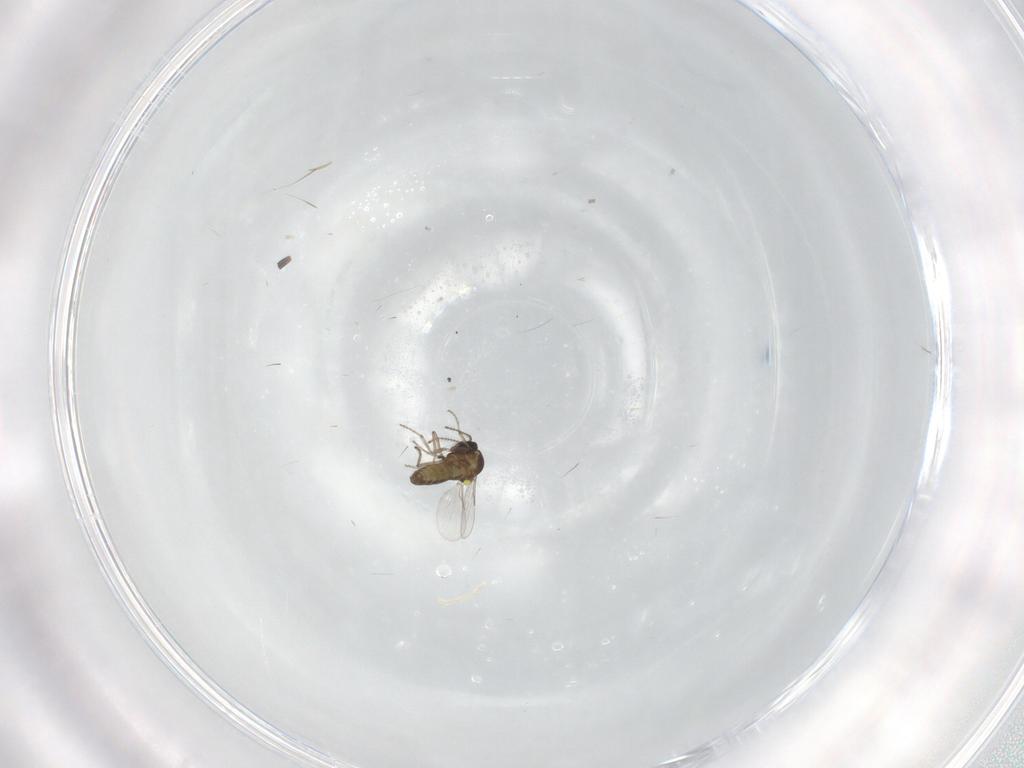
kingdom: Animalia
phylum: Arthropoda
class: Insecta
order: Diptera
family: Ceratopogonidae
